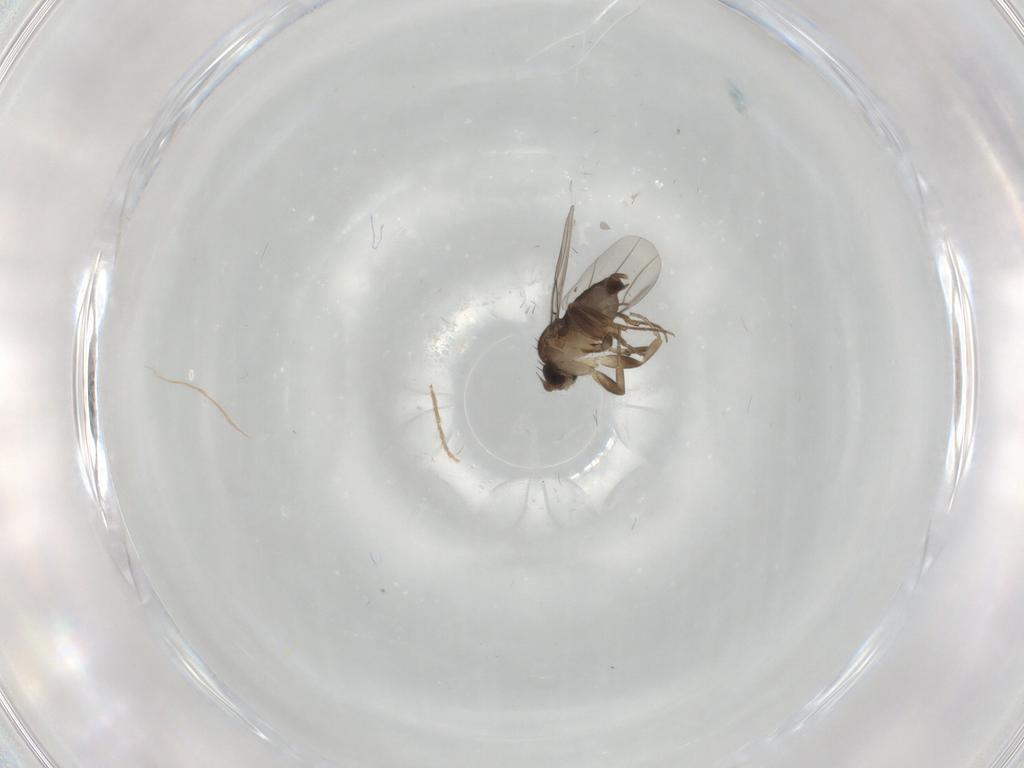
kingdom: Animalia
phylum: Arthropoda
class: Insecta
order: Diptera
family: Phoridae
